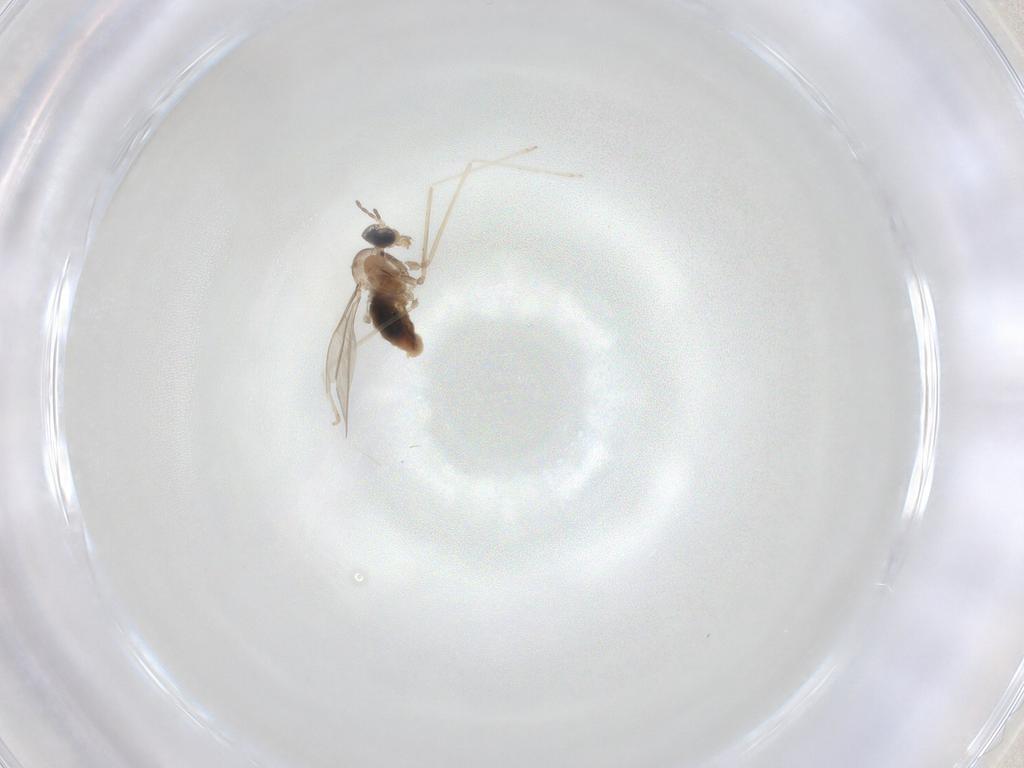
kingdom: Animalia
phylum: Arthropoda
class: Insecta
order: Diptera
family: Cecidomyiidae
